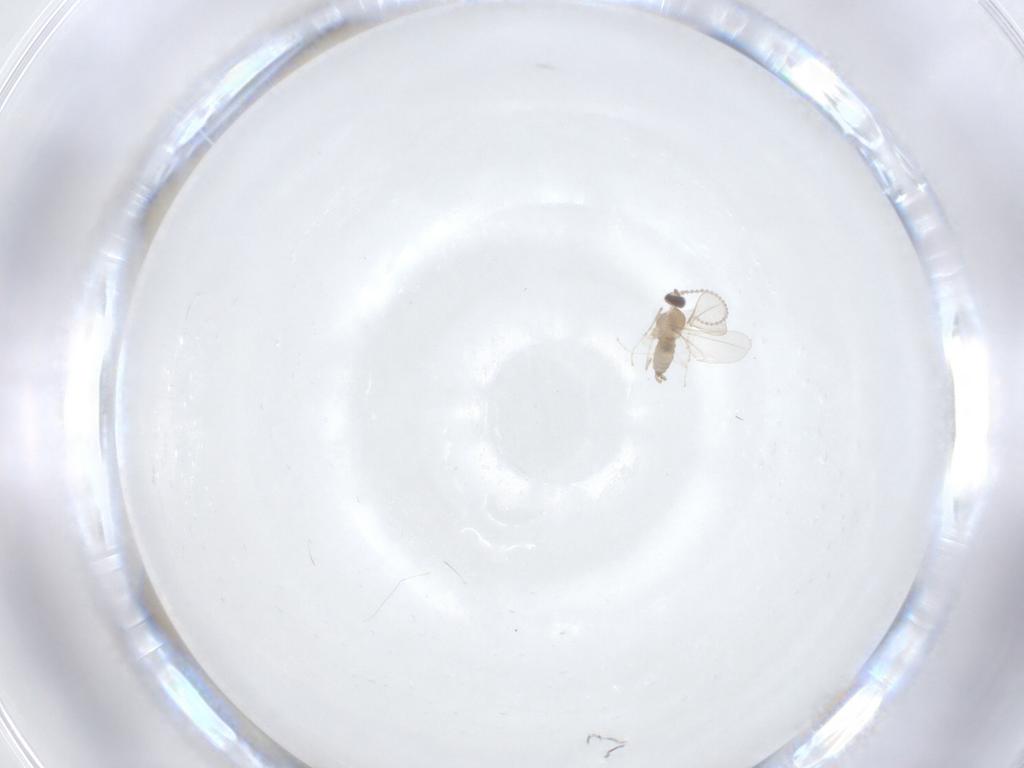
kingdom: Animalia
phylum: Arthropoda
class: Insecta
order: Diptera
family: Cecidomyiidae
